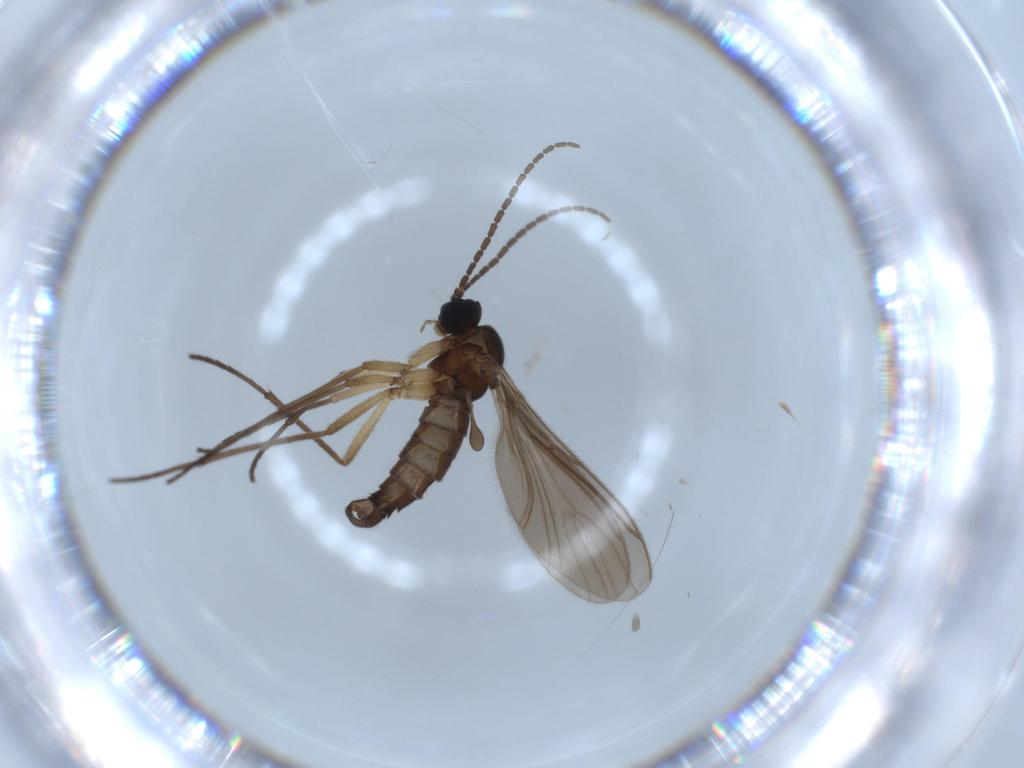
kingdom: Animalia
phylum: Arthropoda
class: Insecta
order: Diptera
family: Sciaridae
